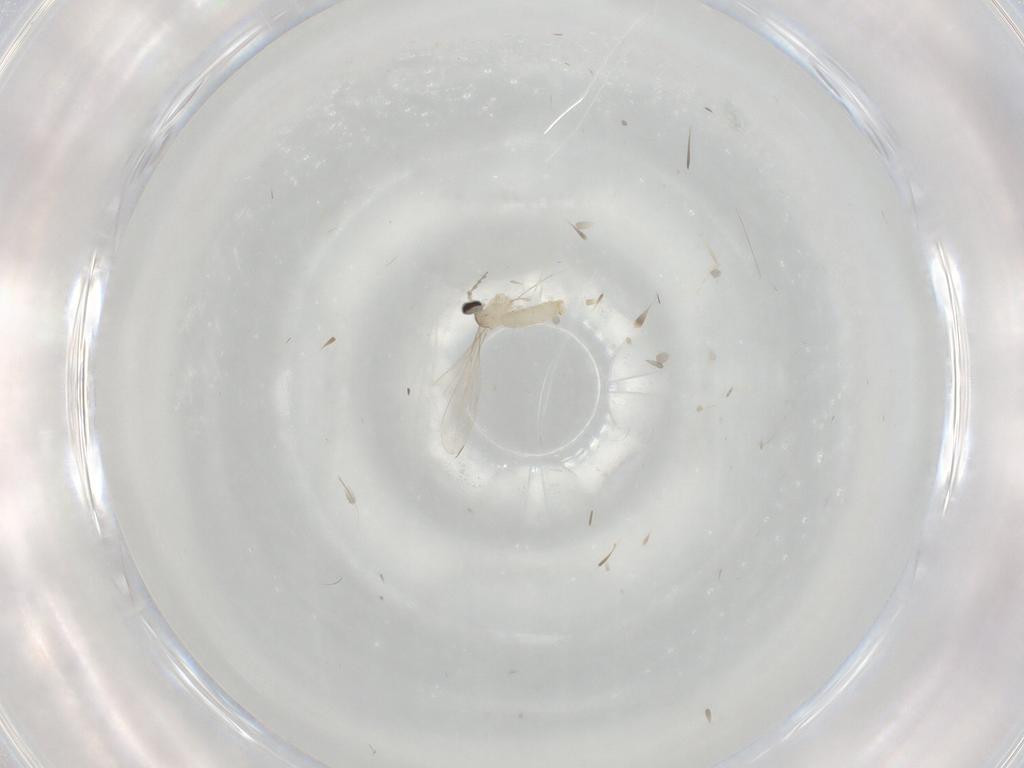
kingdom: Animalia
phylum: Arthropoda
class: Insecta
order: Diptera
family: Cecidomyiidae
